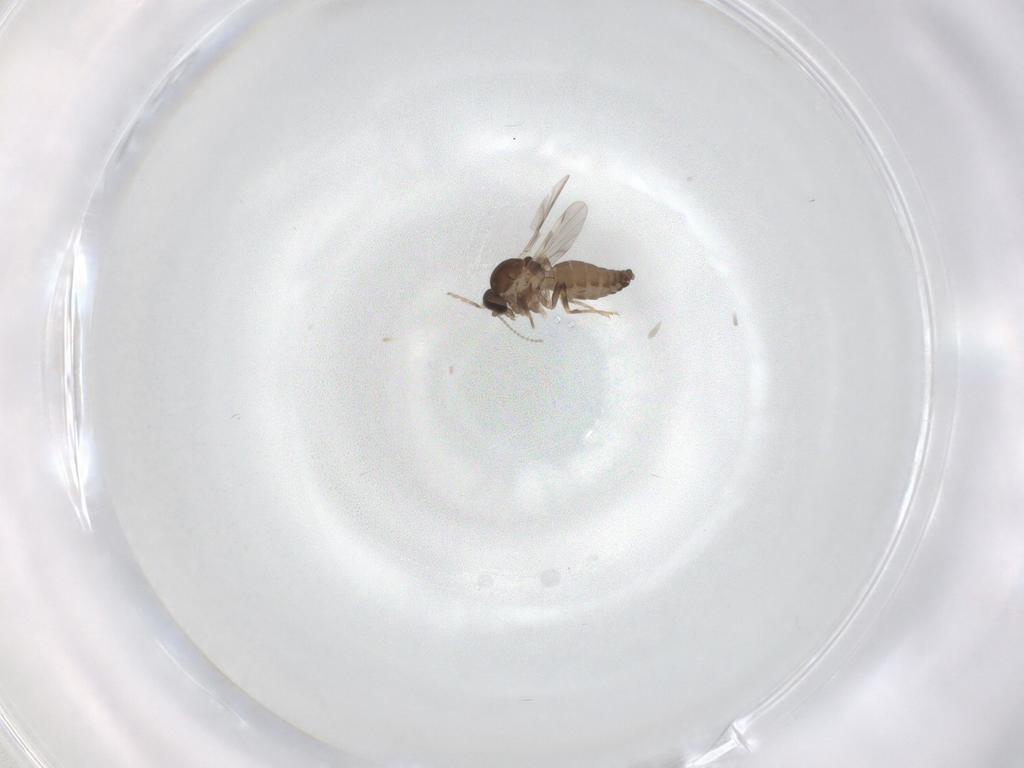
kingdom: Animalia
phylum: Arthropoda
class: Insecta
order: Diptera
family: Ceratopogonidae
